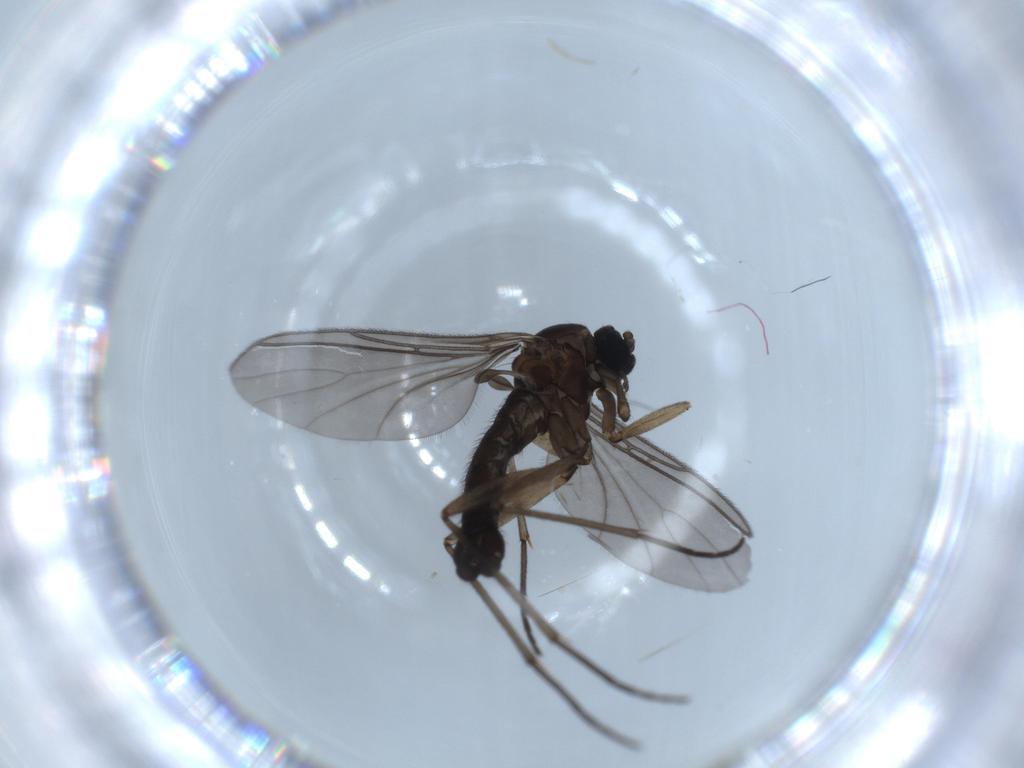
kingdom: Animalia
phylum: Arthropoda
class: Insecta
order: Diptera
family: Sciaridae
